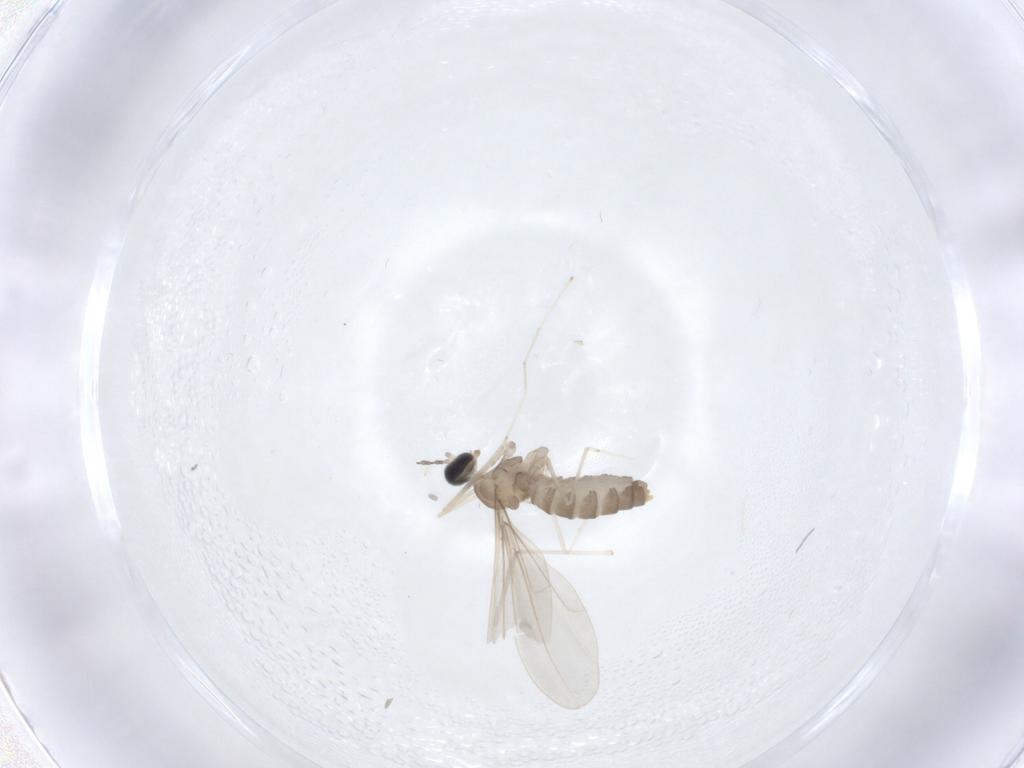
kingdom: Animalia
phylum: Arthropoda
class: Insecta
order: Diptera
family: Cecidomyiidae
